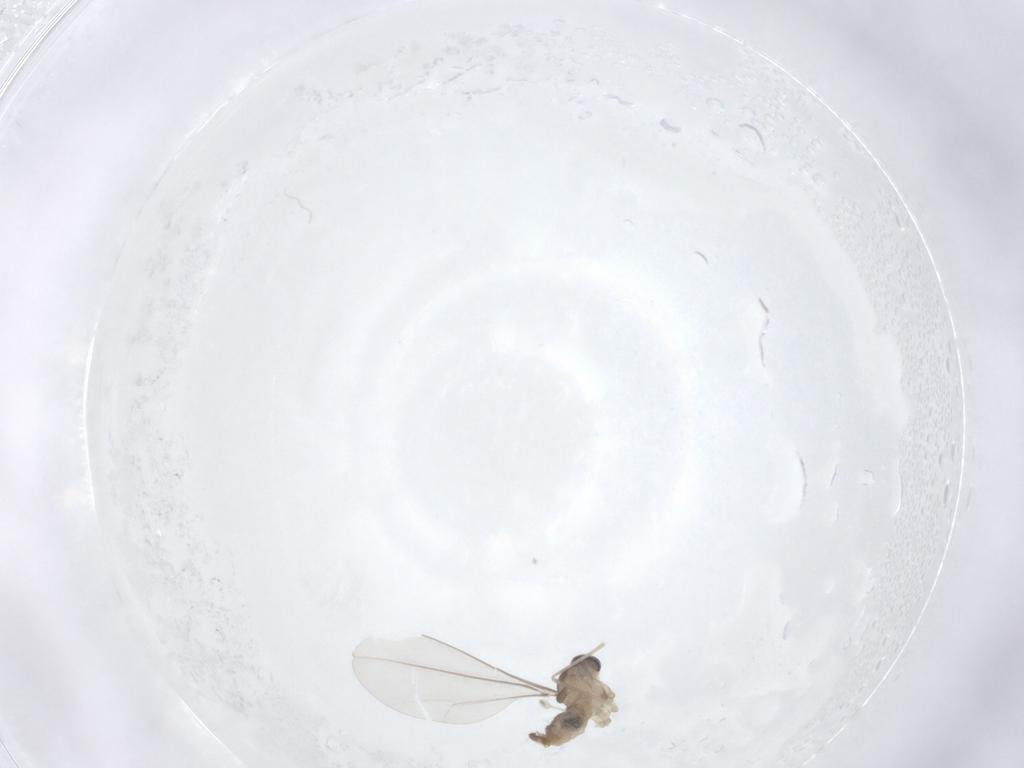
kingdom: Animalia
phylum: Arthropoda
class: Insecta
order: Diptera
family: Cecidomyiidae
